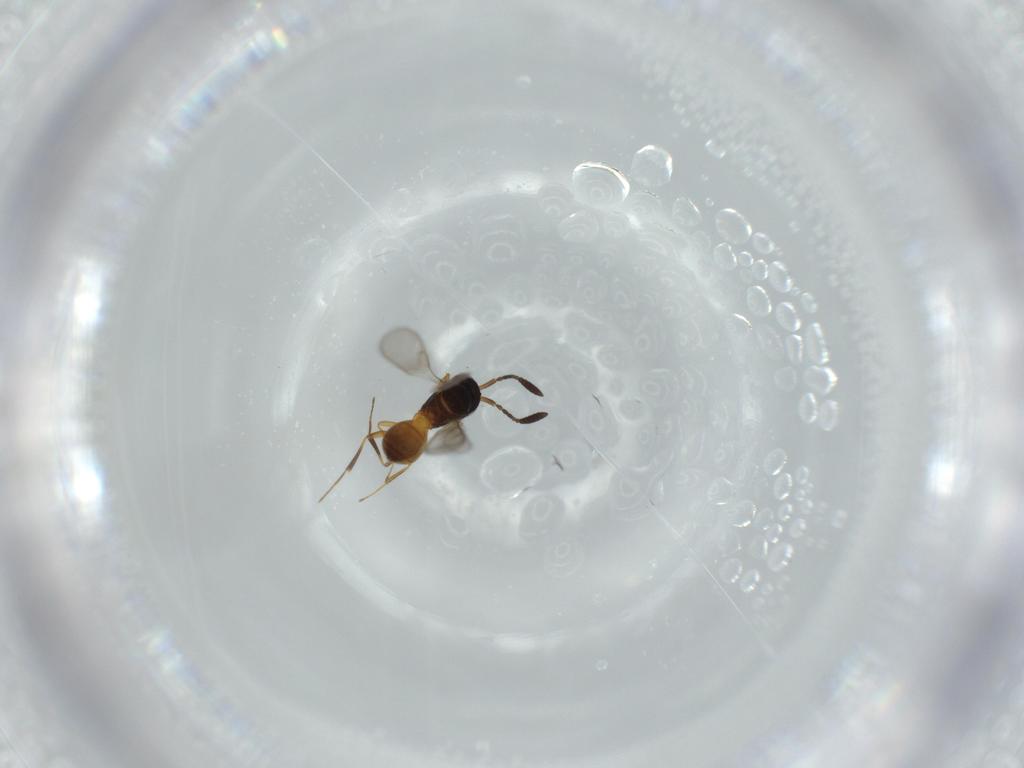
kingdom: Animalia
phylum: Arthropoda
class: Insecta
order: Hymenoptera
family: Scelionidae
